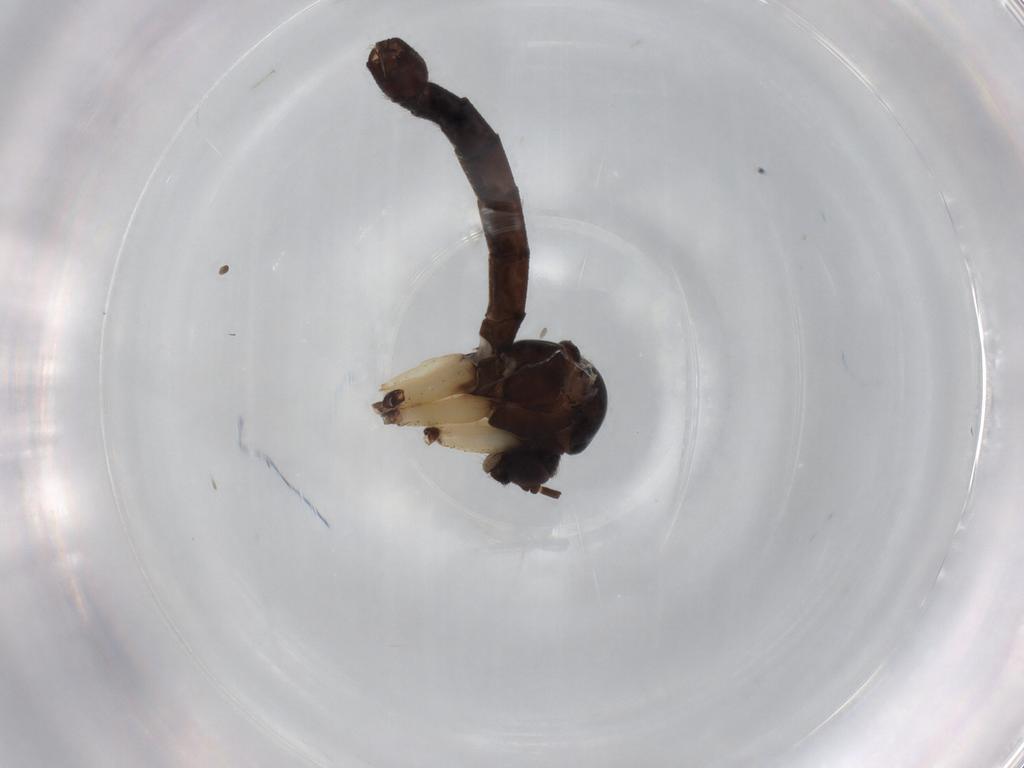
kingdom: Animalia
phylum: Arthropoda
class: Insecta
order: Diptera
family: Mycetophilidae
